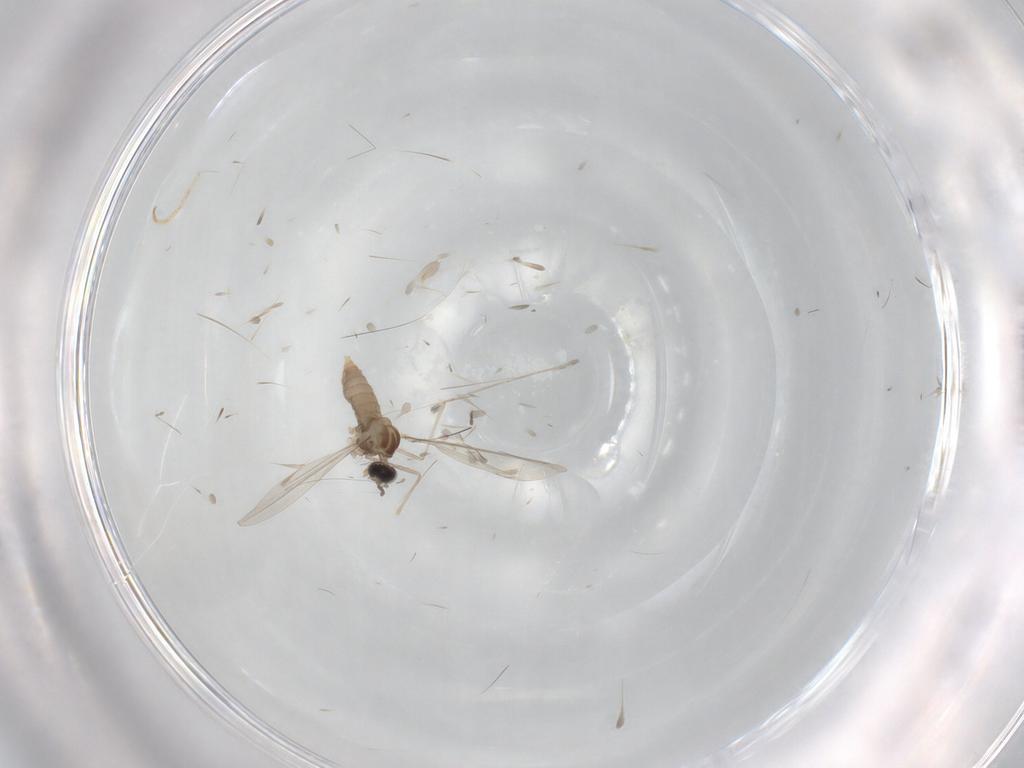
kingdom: Animalia
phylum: Arthropoda
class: Insecta
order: Diptera
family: Cecidomyiidae
